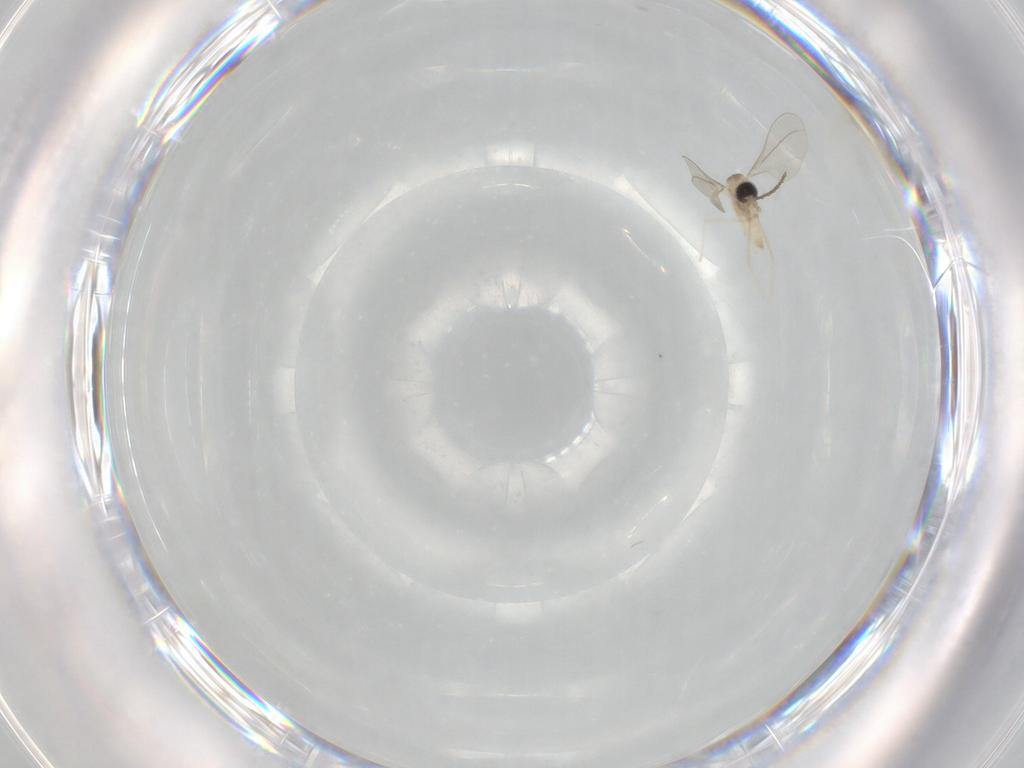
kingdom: Animalia
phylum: Arthropoda
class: Insecta
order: Diptera
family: Cecidomyiidae
